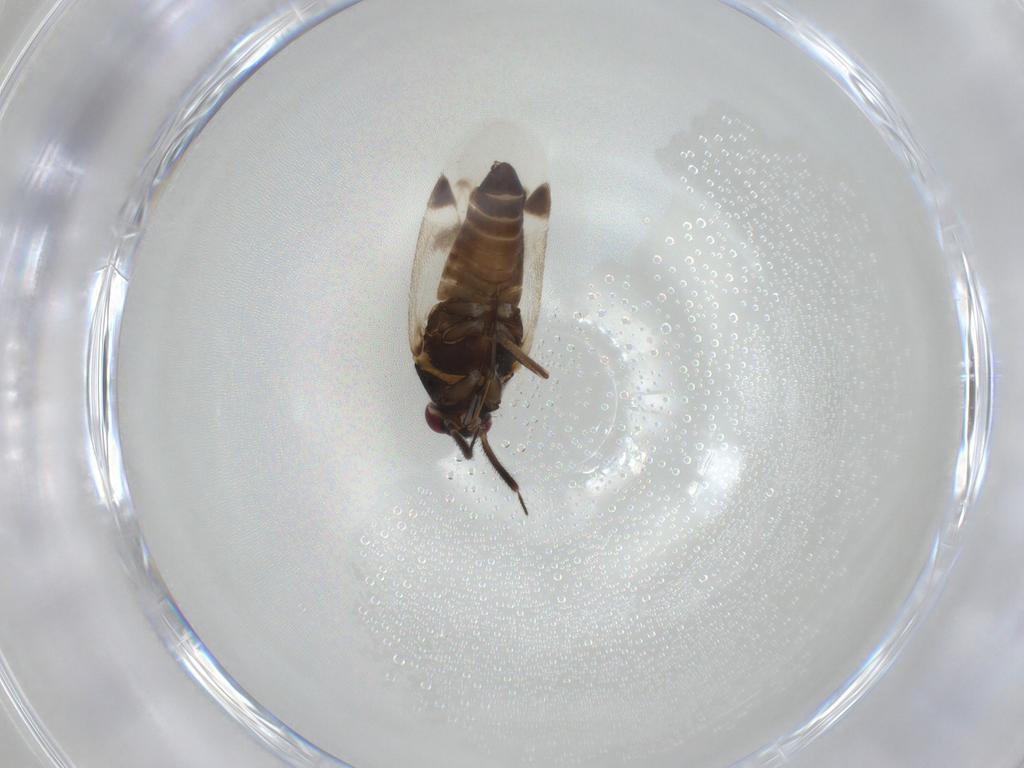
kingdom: Animalia
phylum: Arthropoda
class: Insecta
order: Hemiptera
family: Miridae
